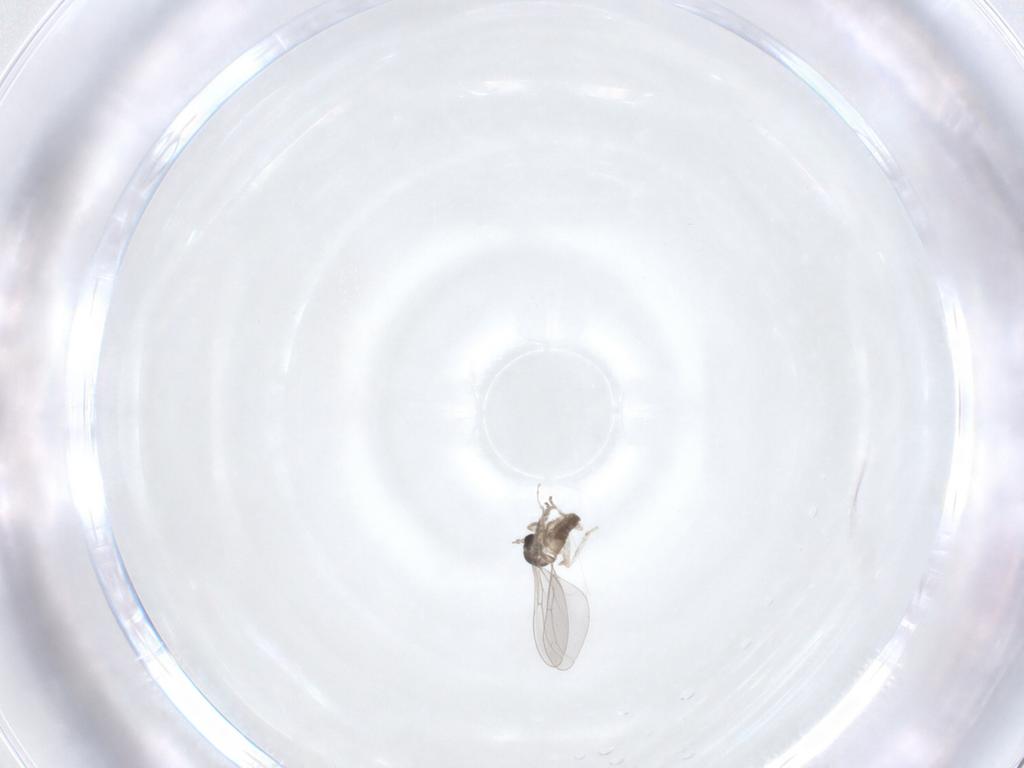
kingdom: Animalia
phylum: Arthropoda
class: Insecta
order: Diptera
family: Cecidomyiidae
